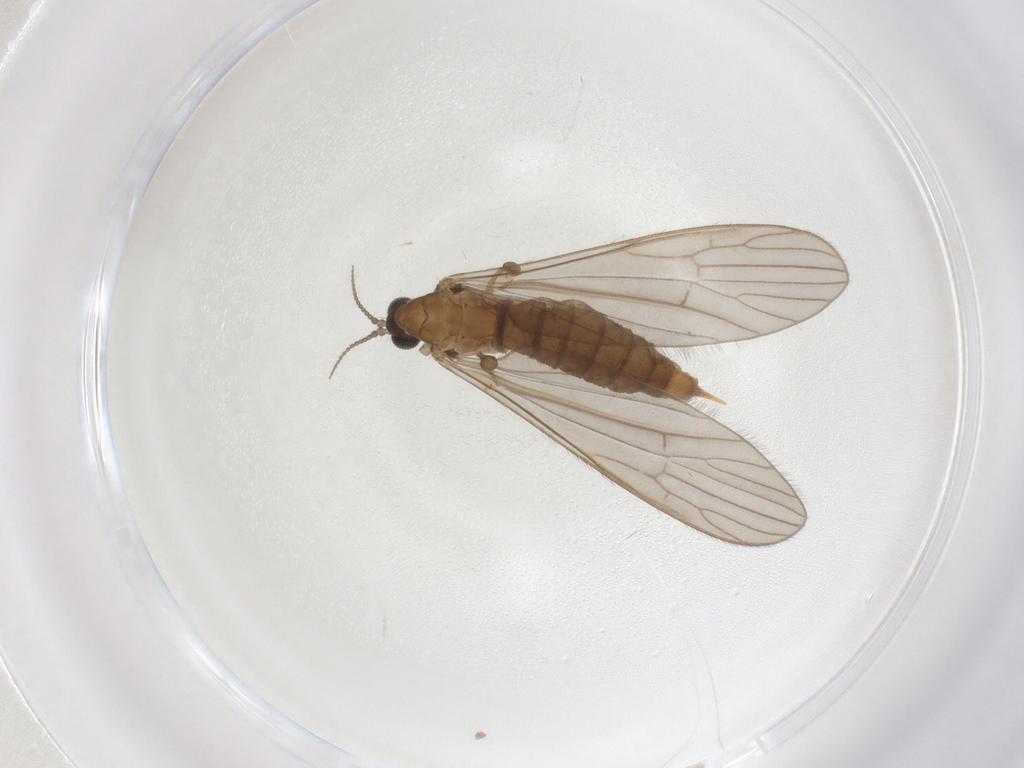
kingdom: Animalia
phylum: Arthropoda
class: Insecta
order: Diptera
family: Limoniidae
